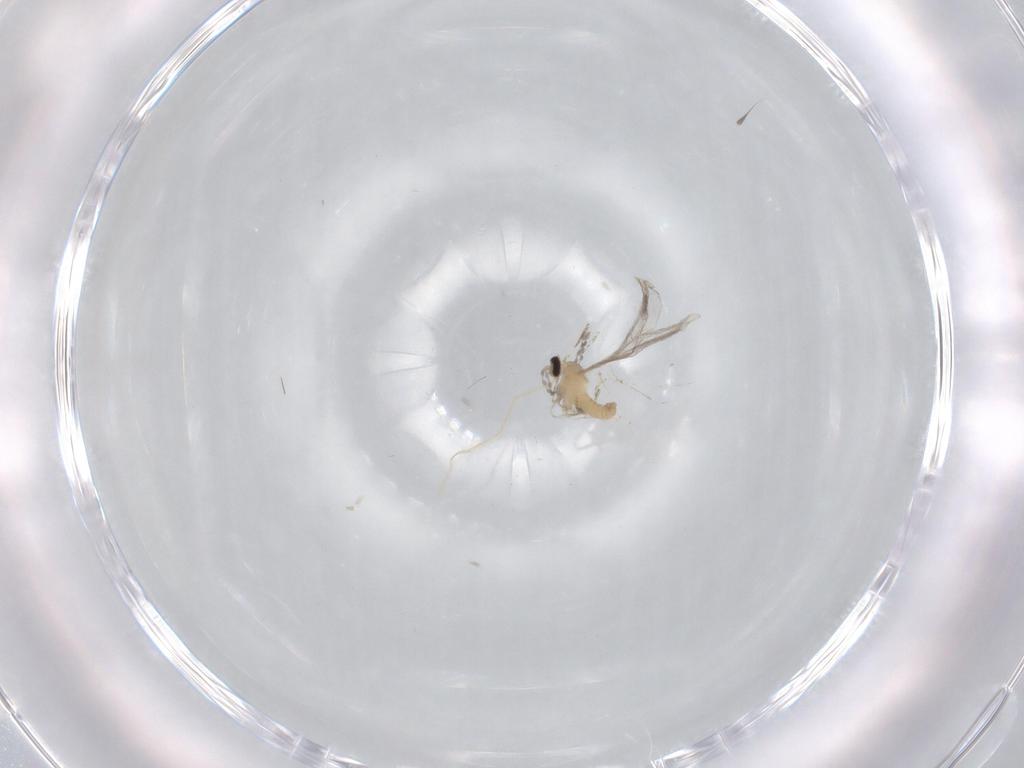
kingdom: Animalia
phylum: Arthropoda
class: Insecta
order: Diptera
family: Cecidomyiidae
